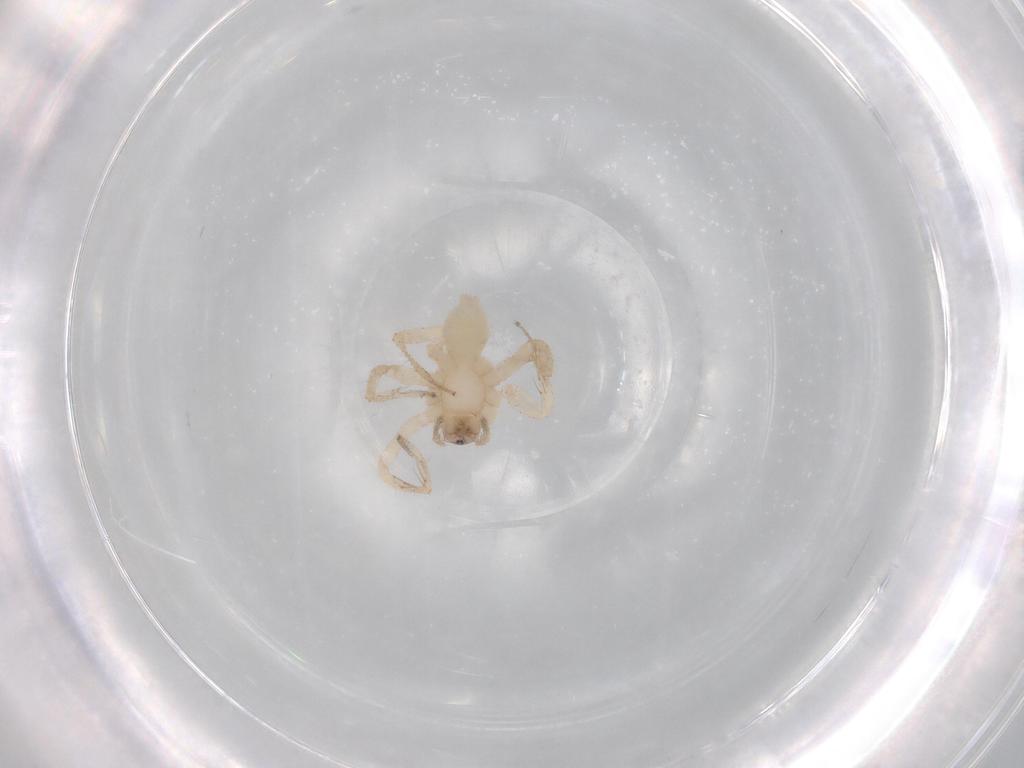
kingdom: Animalia
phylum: Arthropoda
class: Arachnida
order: Araneae
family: Anyphaenidae
